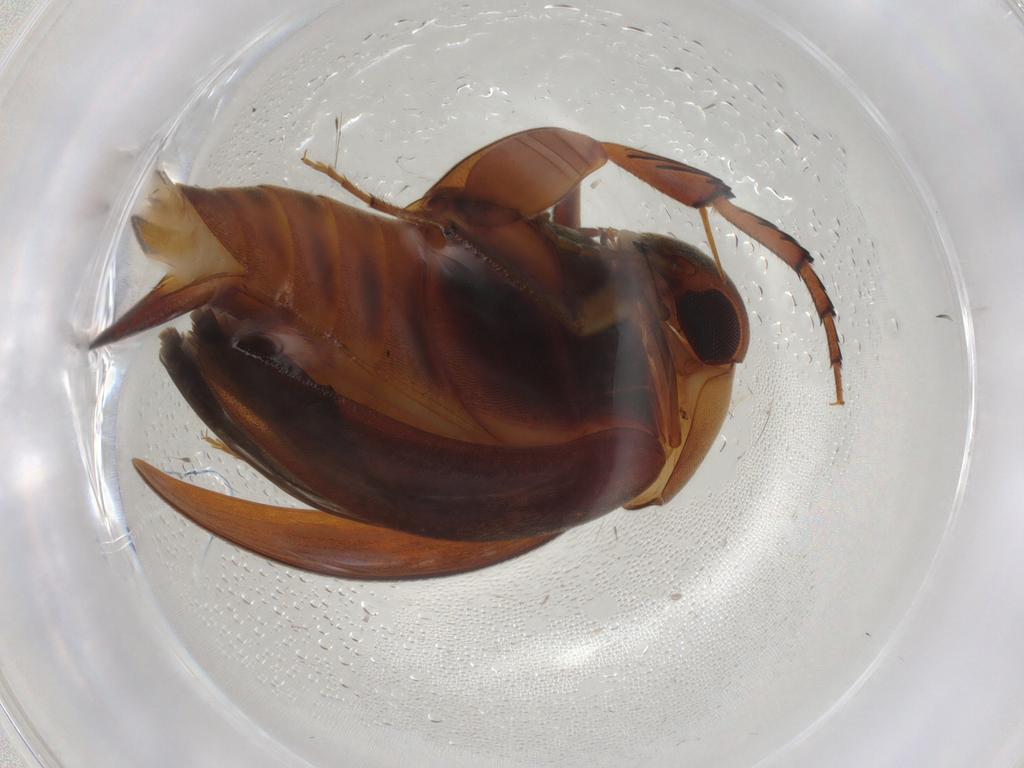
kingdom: Animalia
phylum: Arthropoda
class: Insecta
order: Coleoptera
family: Mordellidae
